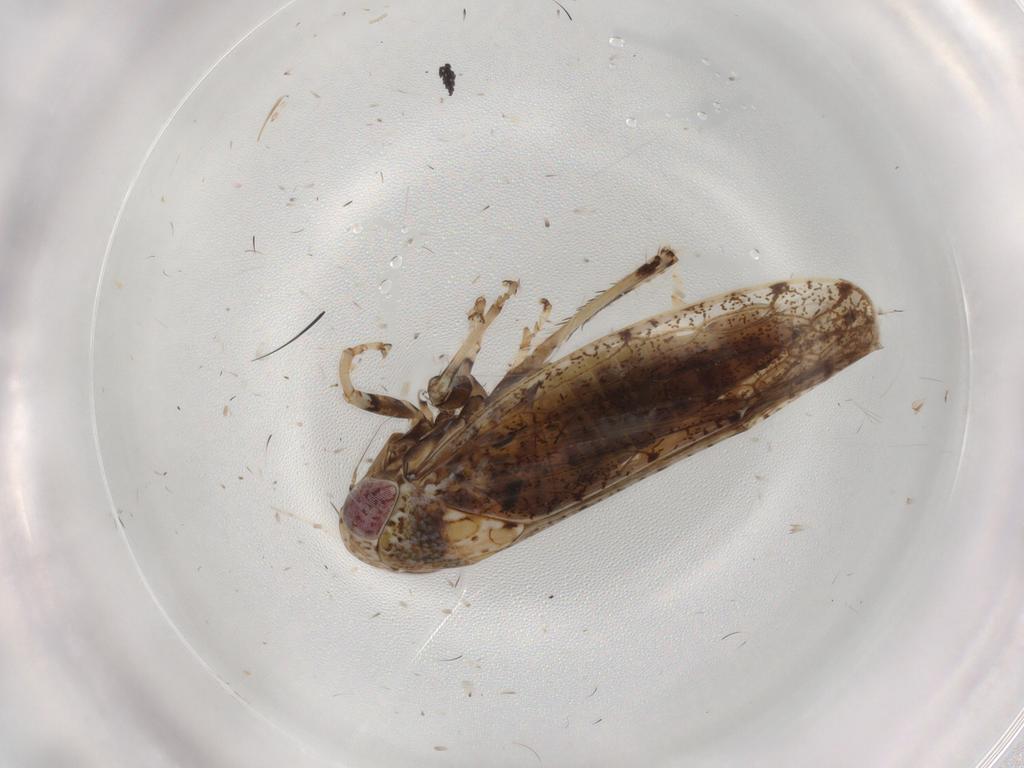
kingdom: Animalia
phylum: Arthropoda
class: Insecta
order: Hemiptera
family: Cicadellidae
